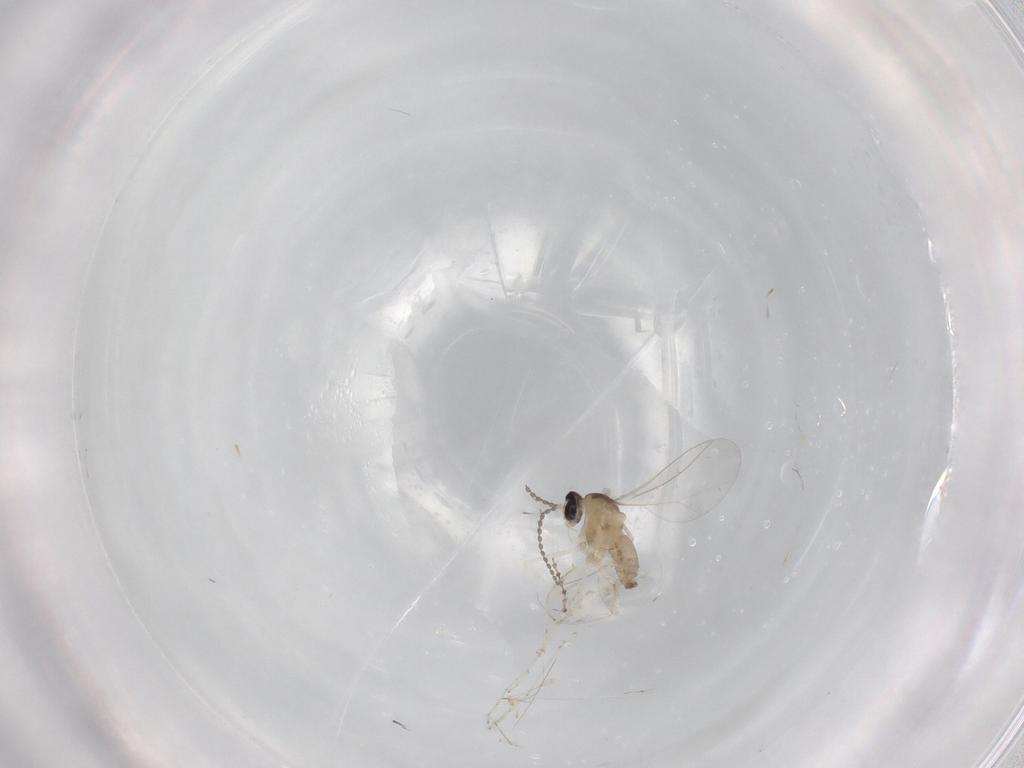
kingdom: Animalia
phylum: Arthropoda
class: Insecta
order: Diptera
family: Cecidomyiidae
